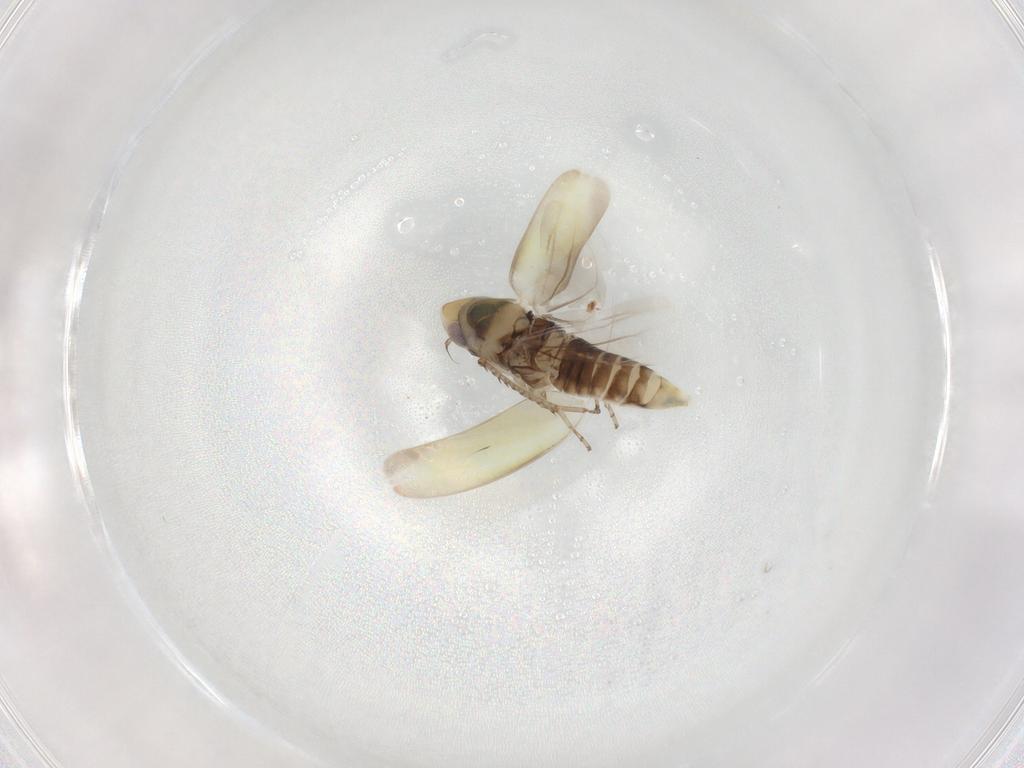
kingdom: Animalia
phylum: Arthropoda
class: Insecta
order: Hemiptera
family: Cicadellidae
